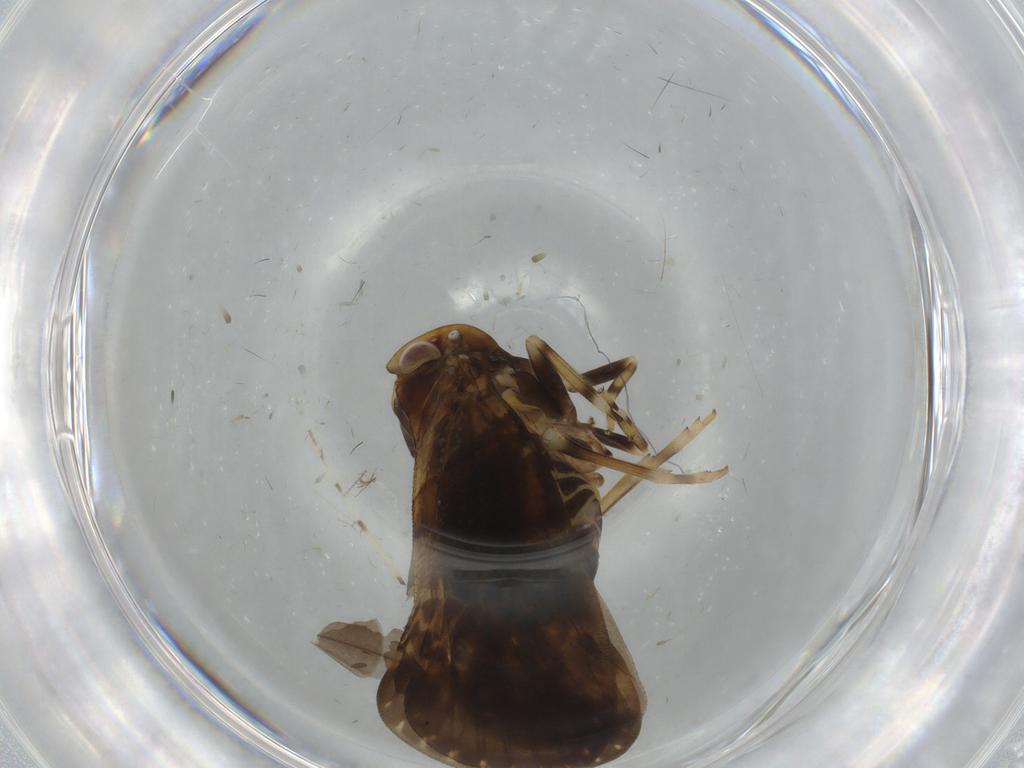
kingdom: Animalia
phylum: Arthropoda
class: Insecta
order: Hemiptera
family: Cixiidae
